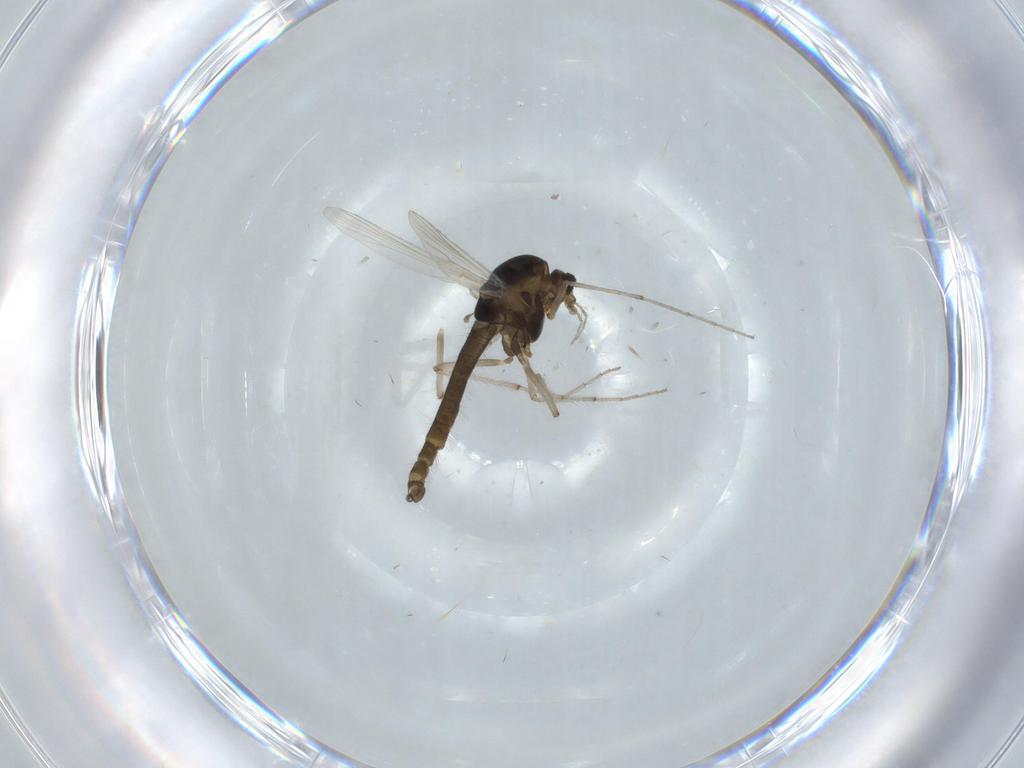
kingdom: Animalia
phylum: Arthropoda
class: Insecta
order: Diptera
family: Chironomidae
